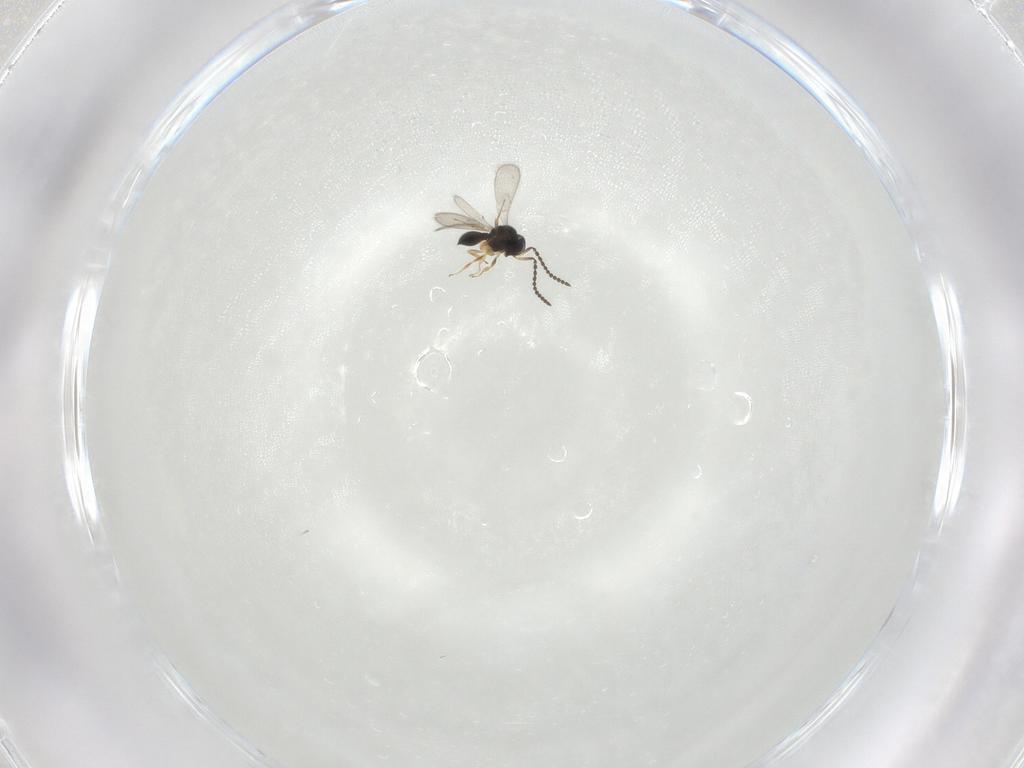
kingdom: Animalia
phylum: Arthropoda
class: Insecta
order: Hymenoptera
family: Scelionidae
